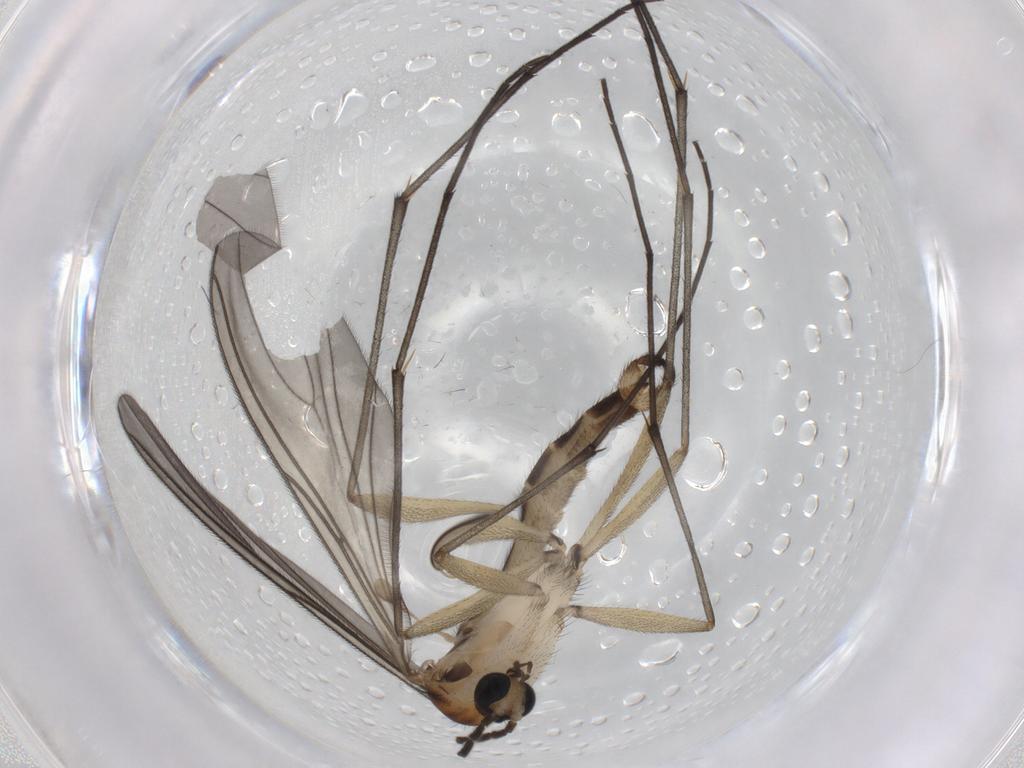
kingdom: Animalia
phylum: Arthropoda
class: Insecta
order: Diptera
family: Sciaridae
